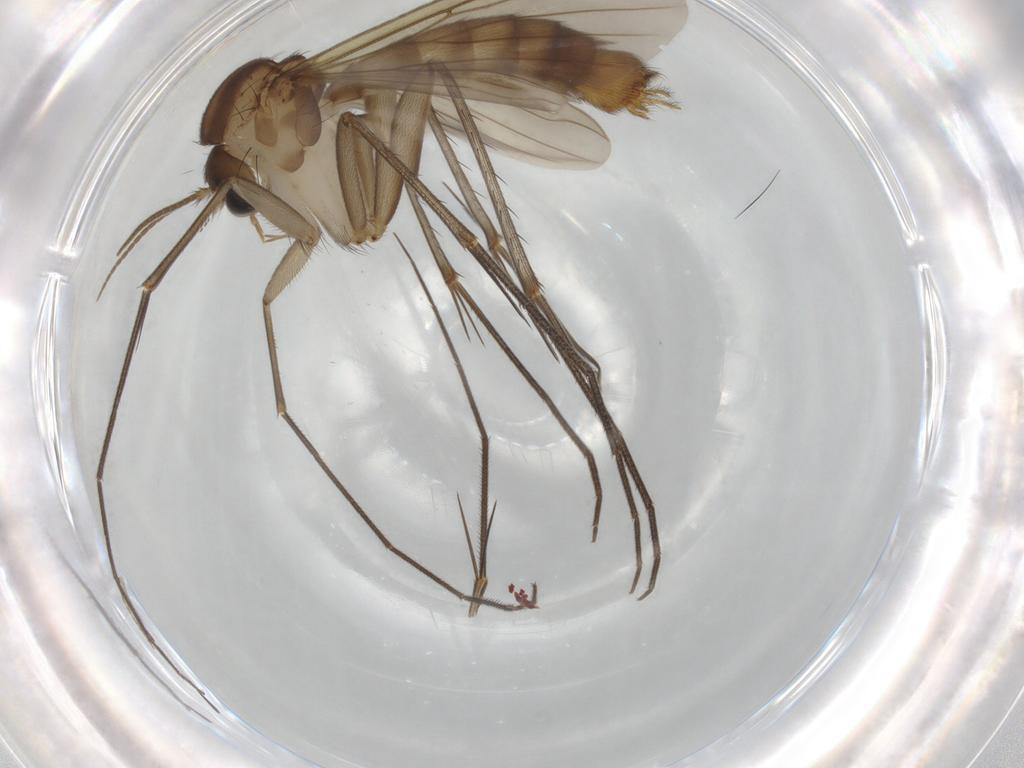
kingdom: Animalia
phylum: Arthropoda
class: Insecta
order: Diptera
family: Chironomidae
